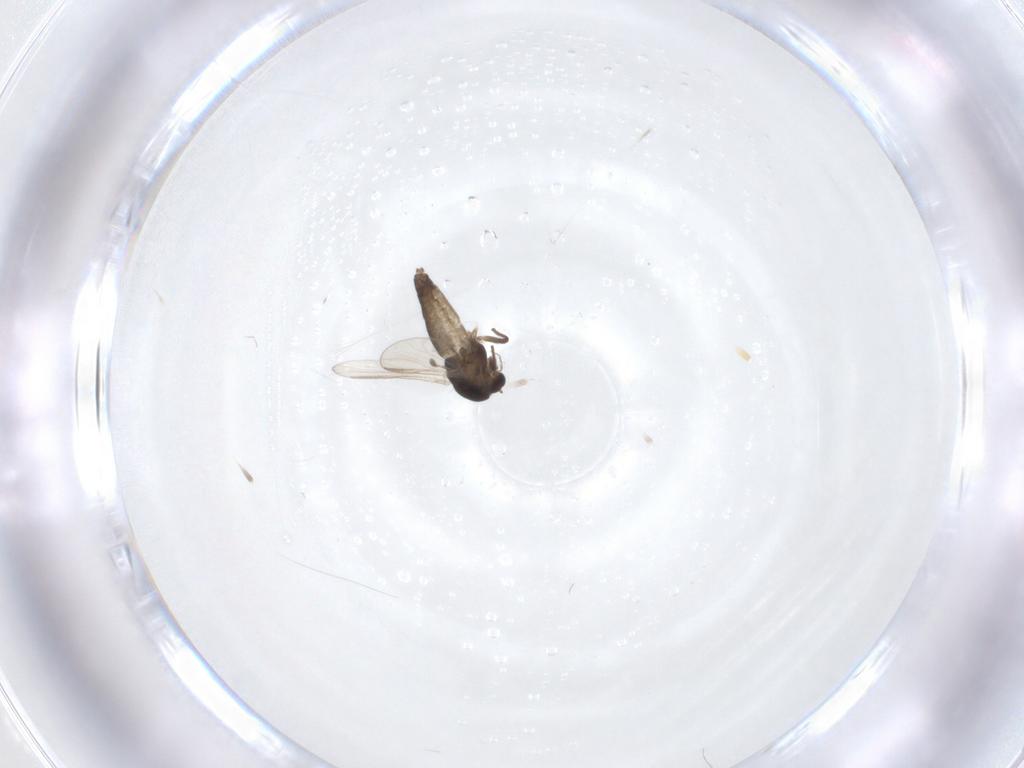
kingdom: Animalia
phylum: Arthropoda
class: Insecta
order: Diptera
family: Chironomidae
